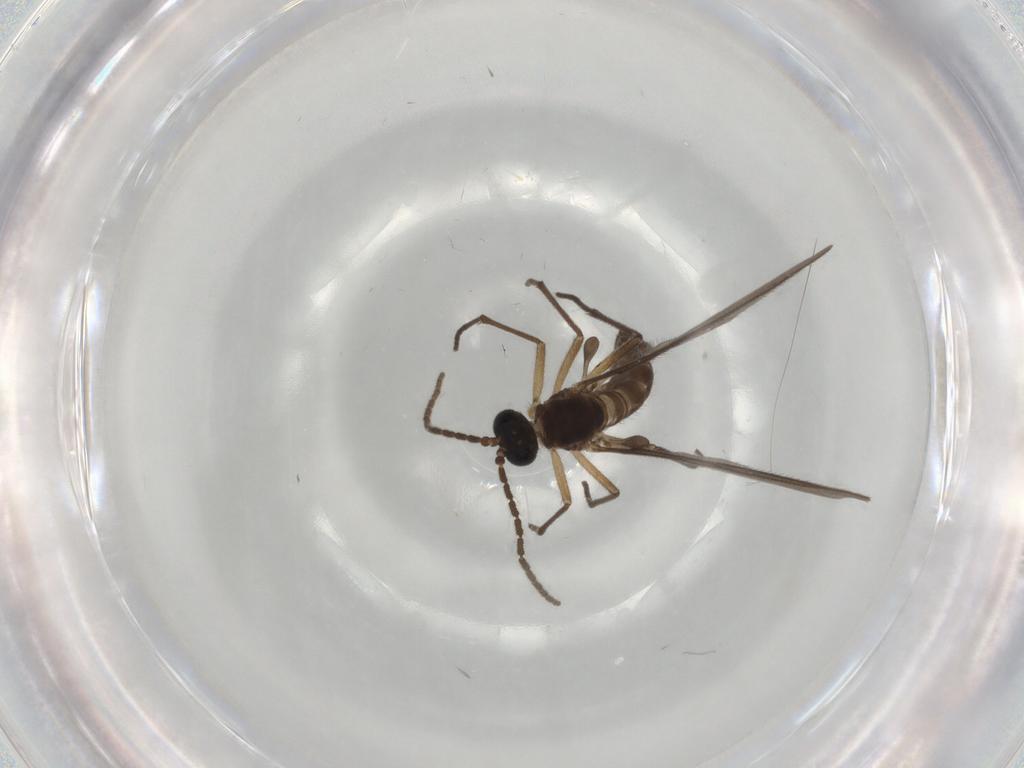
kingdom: Animalia
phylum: Arthropoda
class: Insecta
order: Diptera
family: Sciaridae
